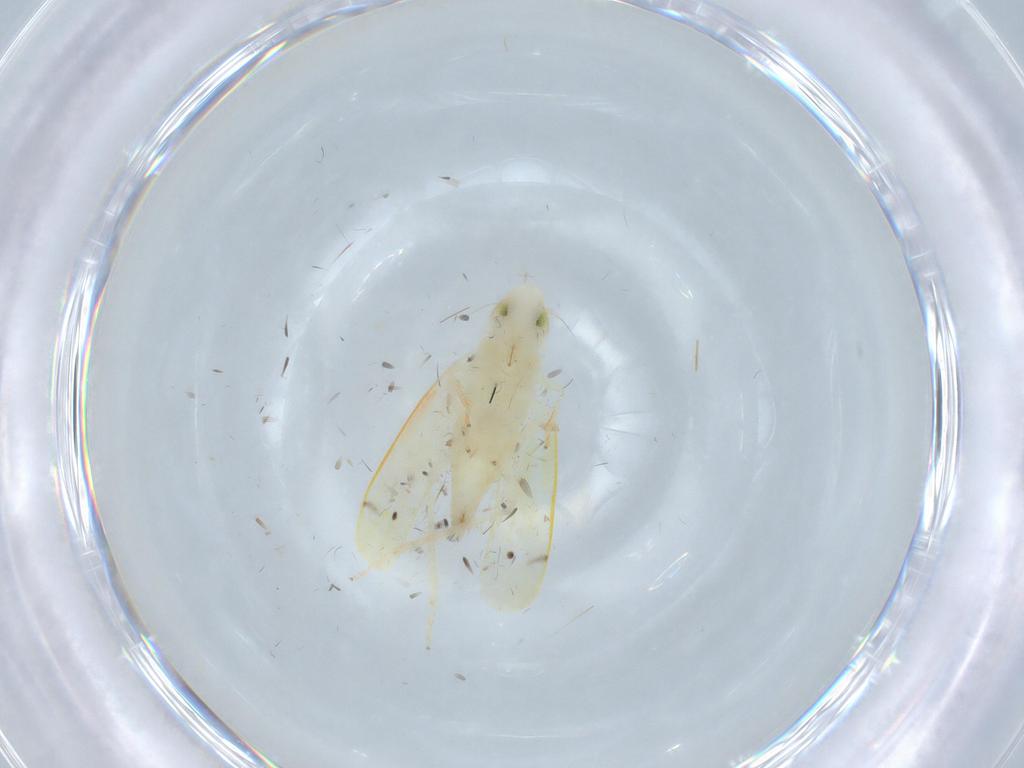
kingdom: Animalia
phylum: Arthropoda
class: Insecta
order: Hemiptera
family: Cicadellidae
